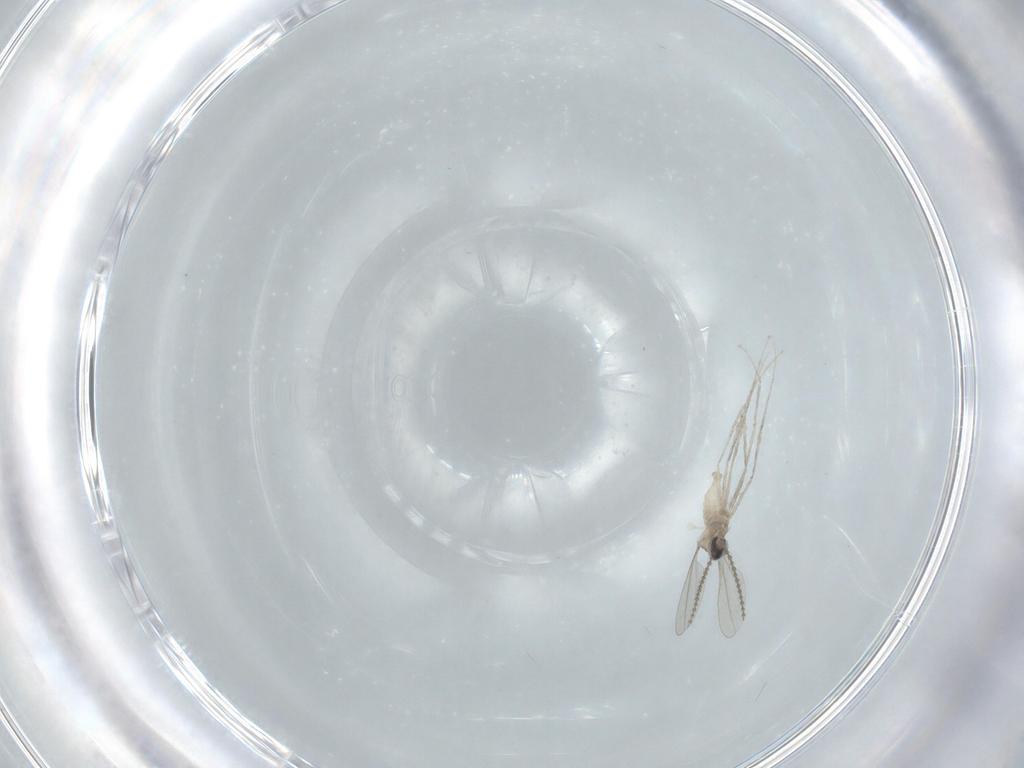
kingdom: Animalia
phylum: Arthropoda
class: Insecta
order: Diptera
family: Cecidomyiidae
